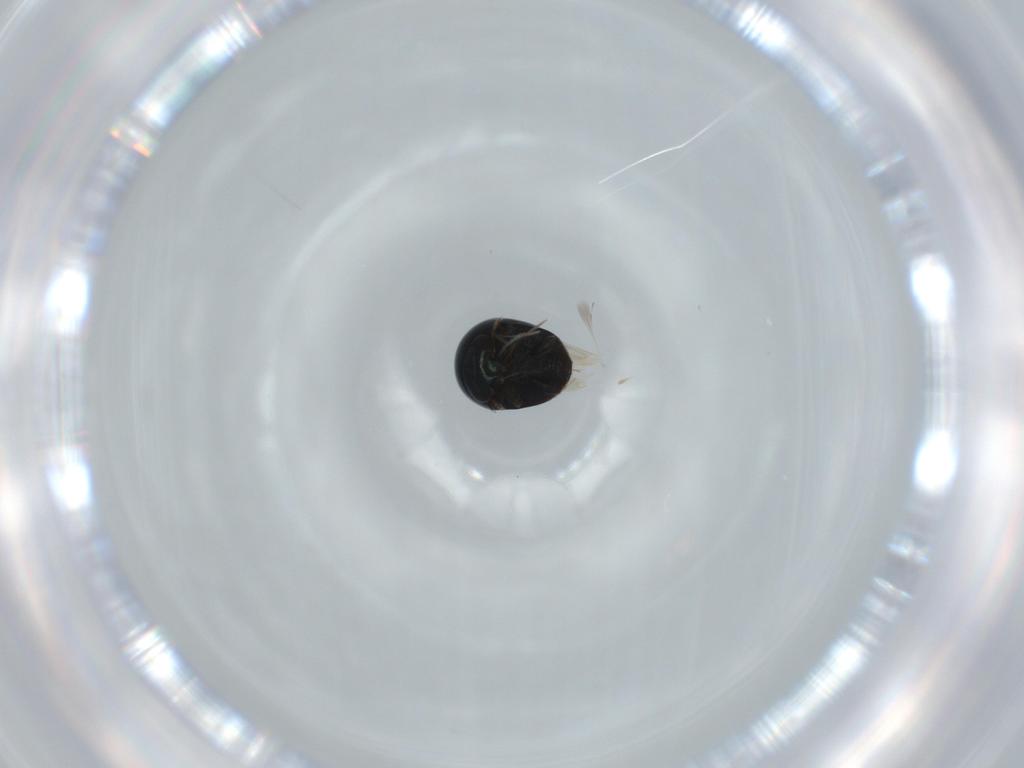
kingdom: Animalia
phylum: Arthropoda
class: Insecta
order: Coleoptera
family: Cybocephalidae
